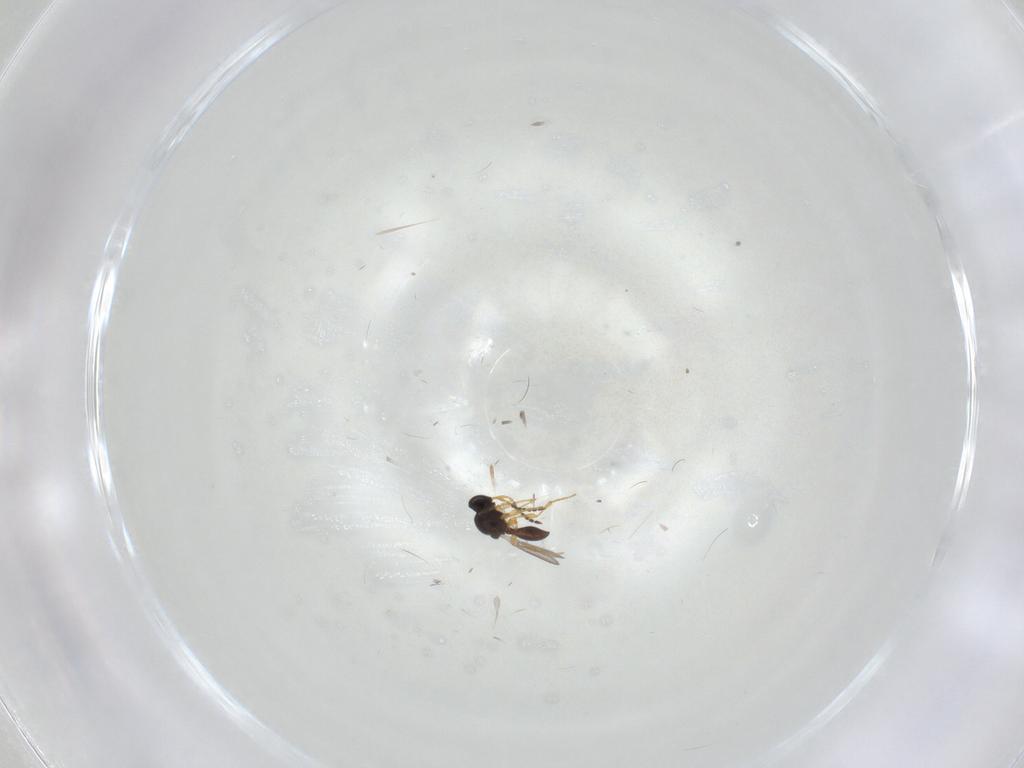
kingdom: Animalia
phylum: Arthropoda
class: Insecta
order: Hymenoptera
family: Platygastridae
